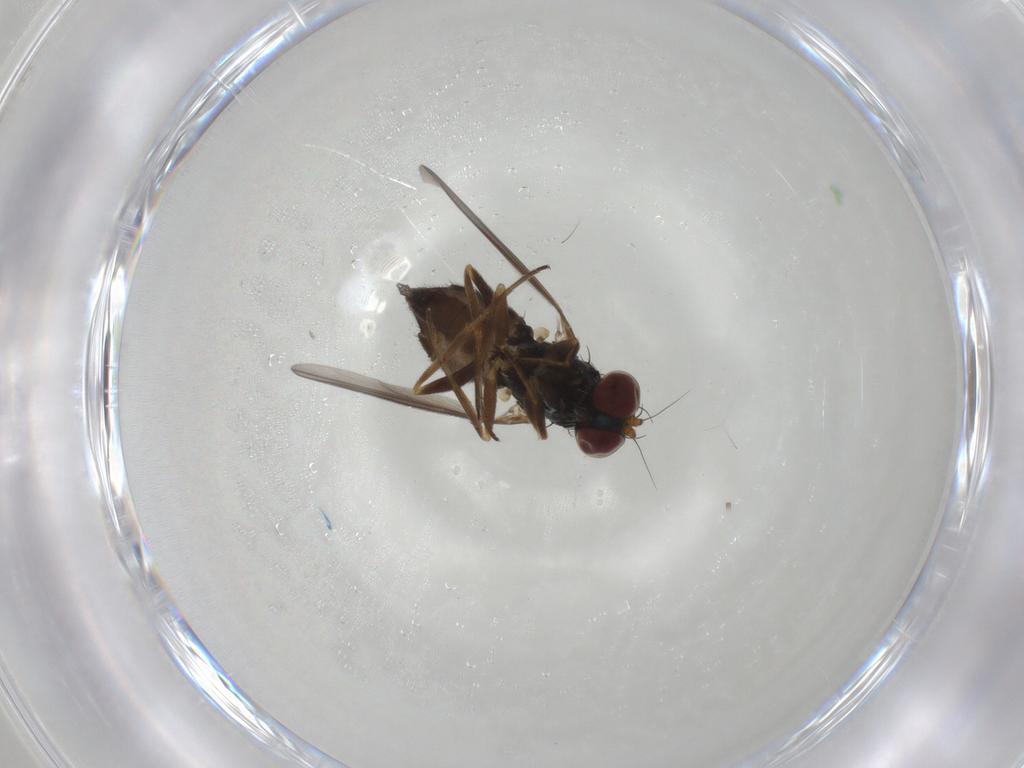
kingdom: Animalia
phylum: Arthropoda
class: Insecta
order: Diptera
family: Dolichopodidae
